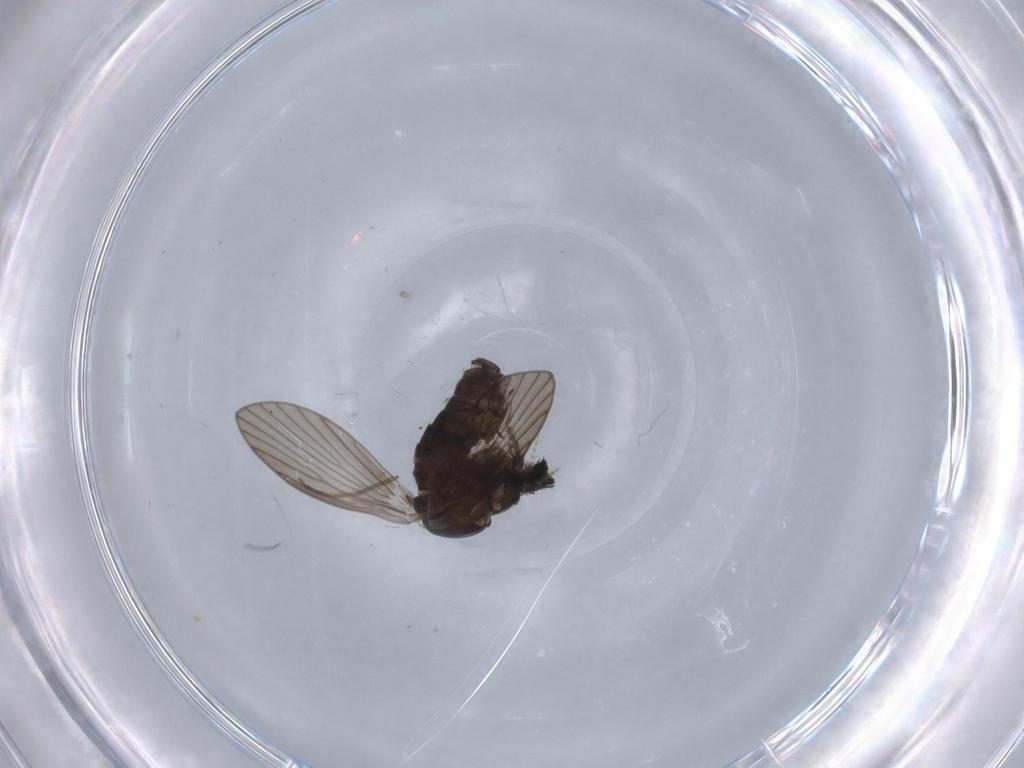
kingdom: Animalia
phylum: Arthropoda
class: Insecta
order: Diptera
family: Psychodidae
